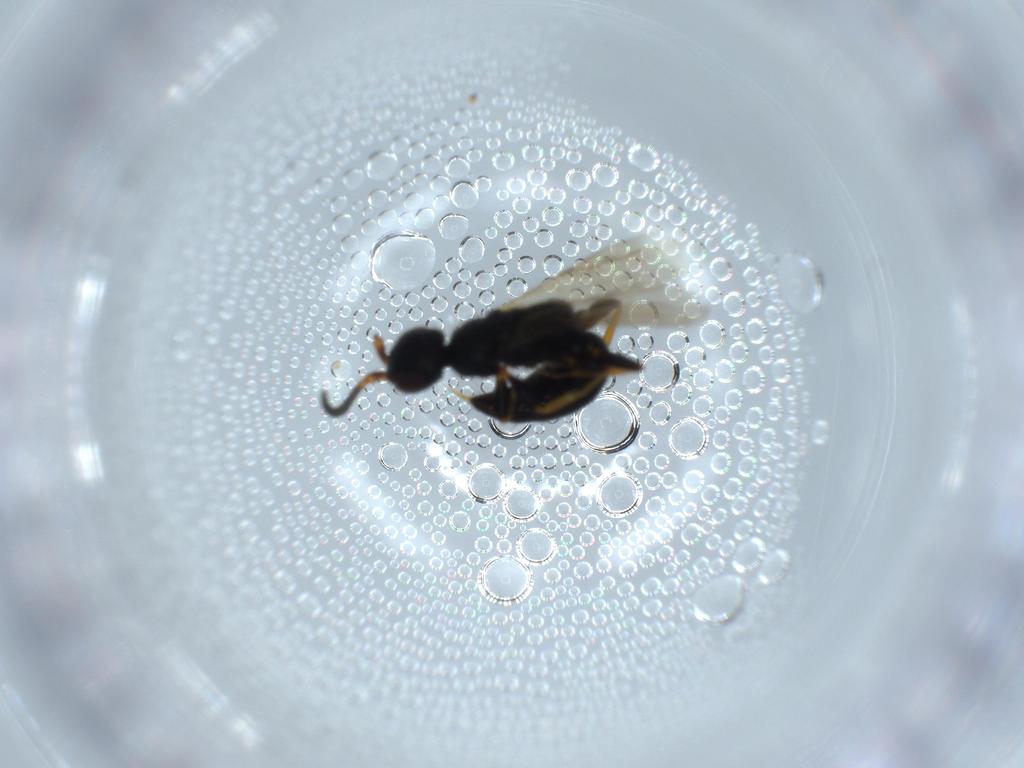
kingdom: Animalia
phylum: Arthropoda
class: Insecta
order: Hymenoptera
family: Bethylidae
